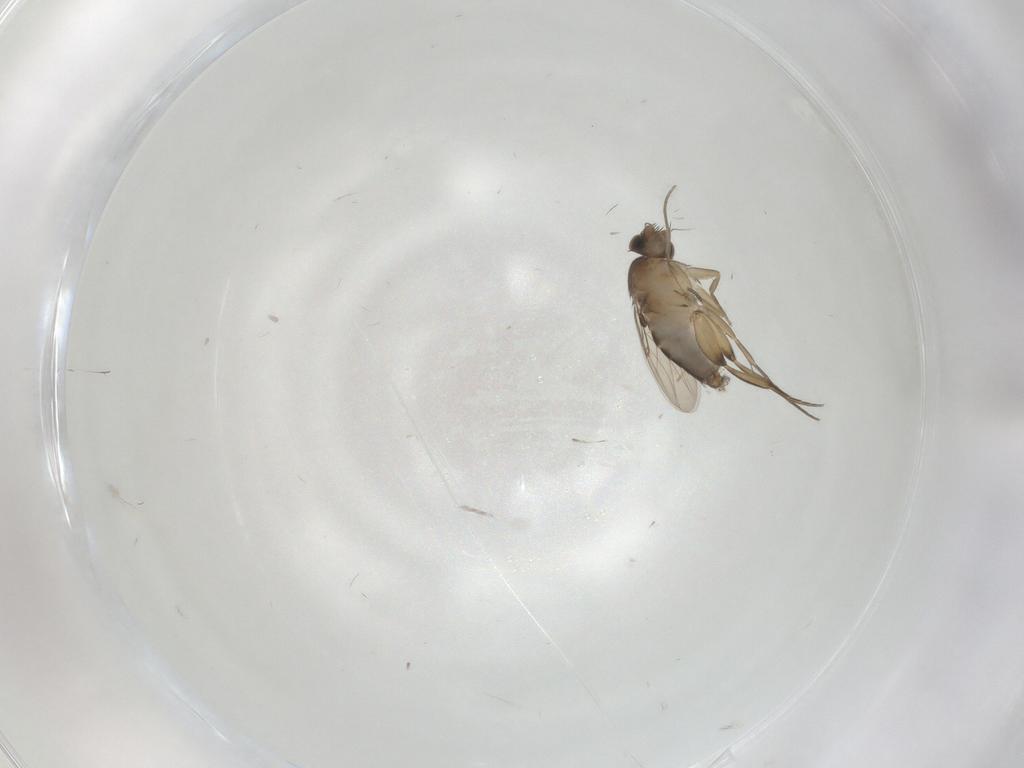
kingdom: Animalia
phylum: Arthropoda
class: Insecta
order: Diptera
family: Phoridae
